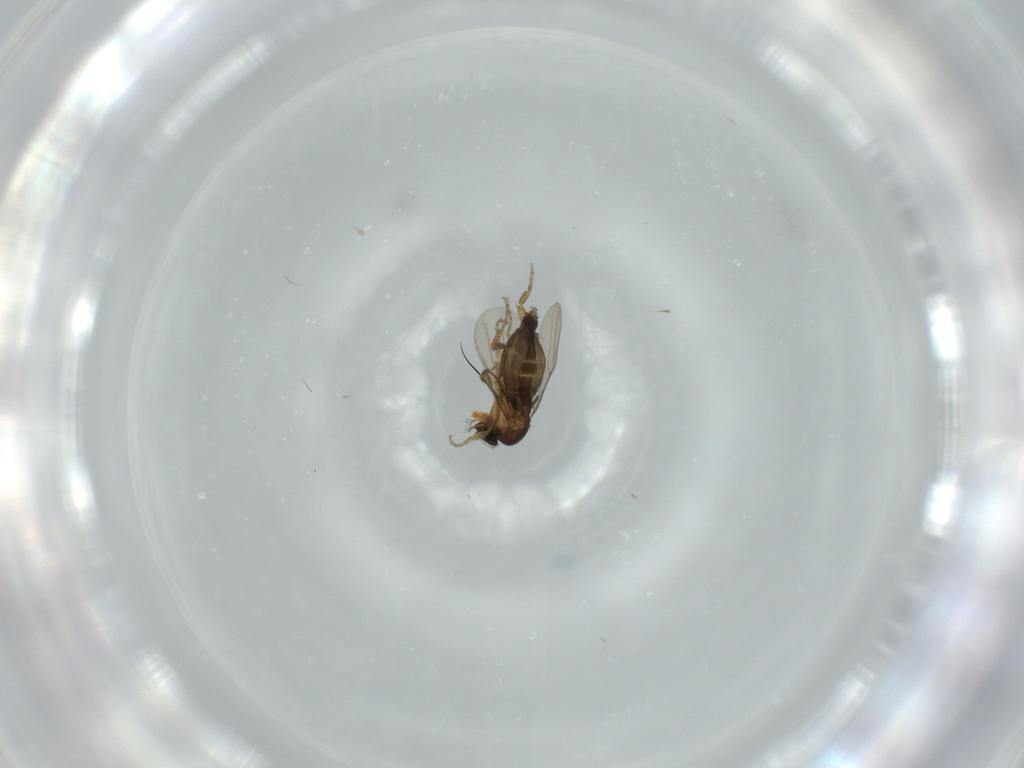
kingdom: Animalia
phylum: Arthropoda
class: Insecta
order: Diptera
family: Phoridae
